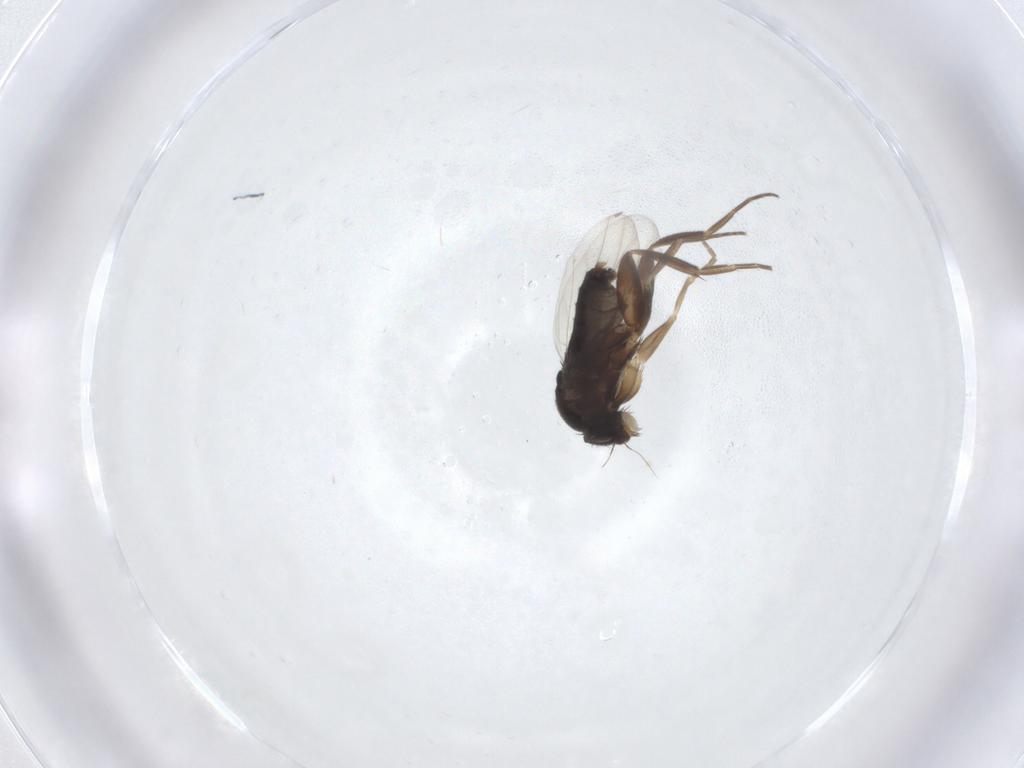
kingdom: Animalia
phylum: Arthropoda
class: Insecta
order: Diptera
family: Phoridae
